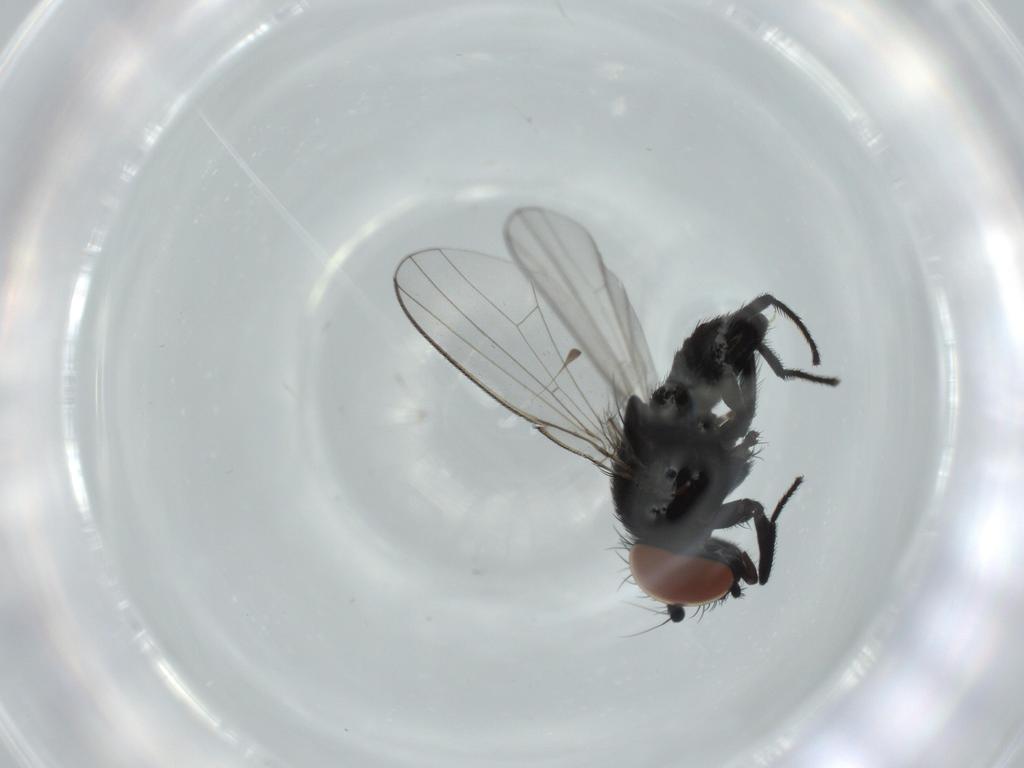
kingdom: Animalia
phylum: Arthropoda
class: Insecta
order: Diptera
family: Milichiidae
